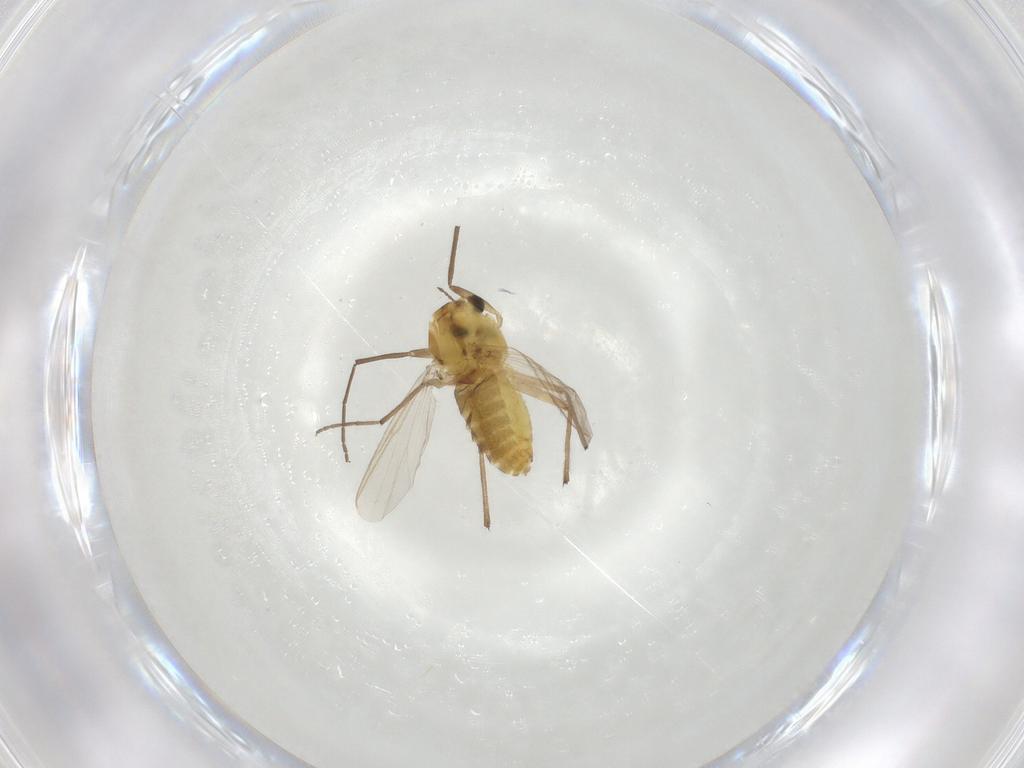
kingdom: Animalia
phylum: Arthropoda
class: Insecta
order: Diptera
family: Chironomidae
